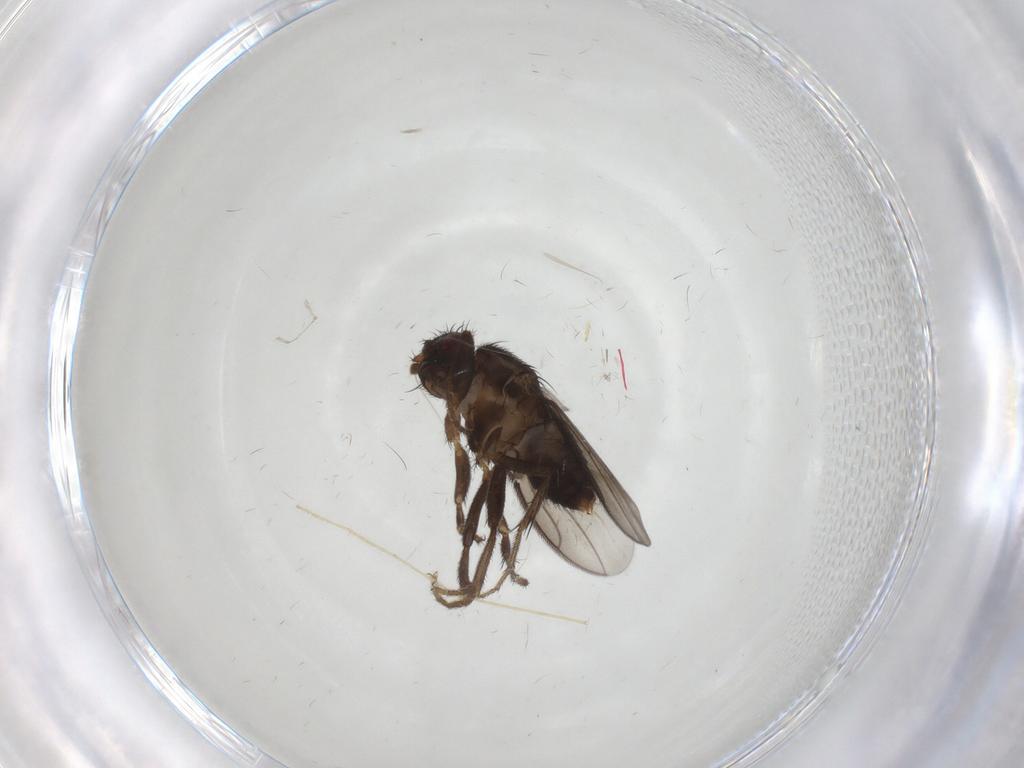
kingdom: Animalia
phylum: Arthropoda
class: Insecta
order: Diptera
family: Sphaeroceridae
